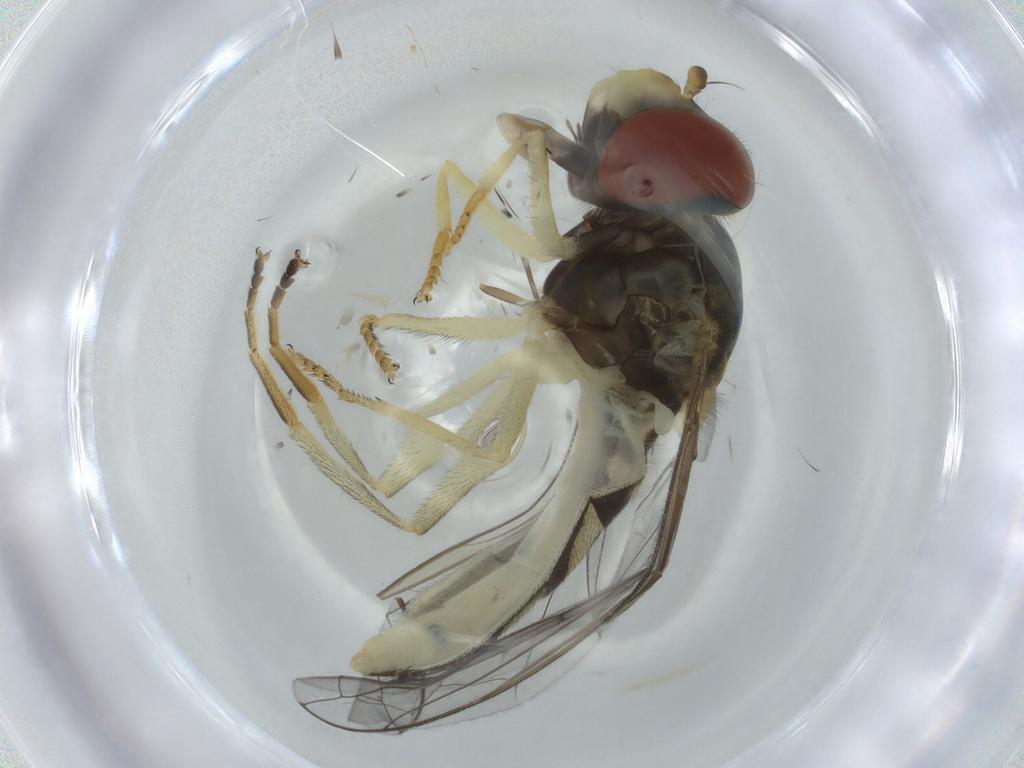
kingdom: Animalia
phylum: Arthropoda
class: Insecta
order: Diptera
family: Syrphidae
